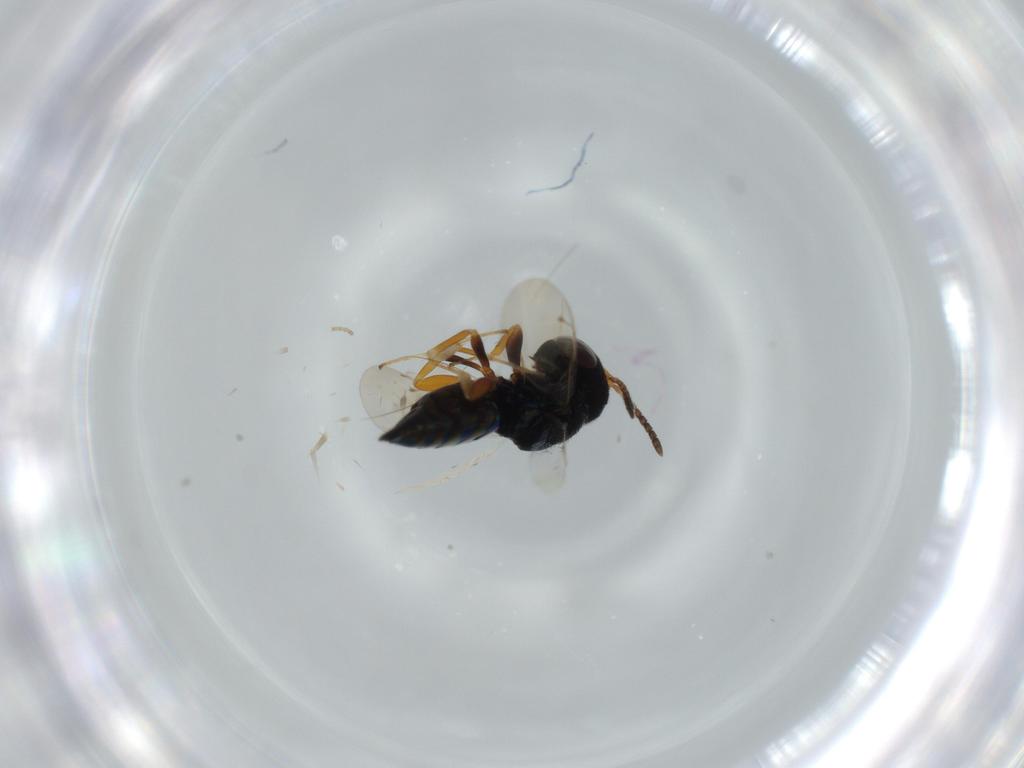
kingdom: Animalia
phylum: Arthropoda
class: Insecta
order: Hymenoptera
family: Pteromalidae
